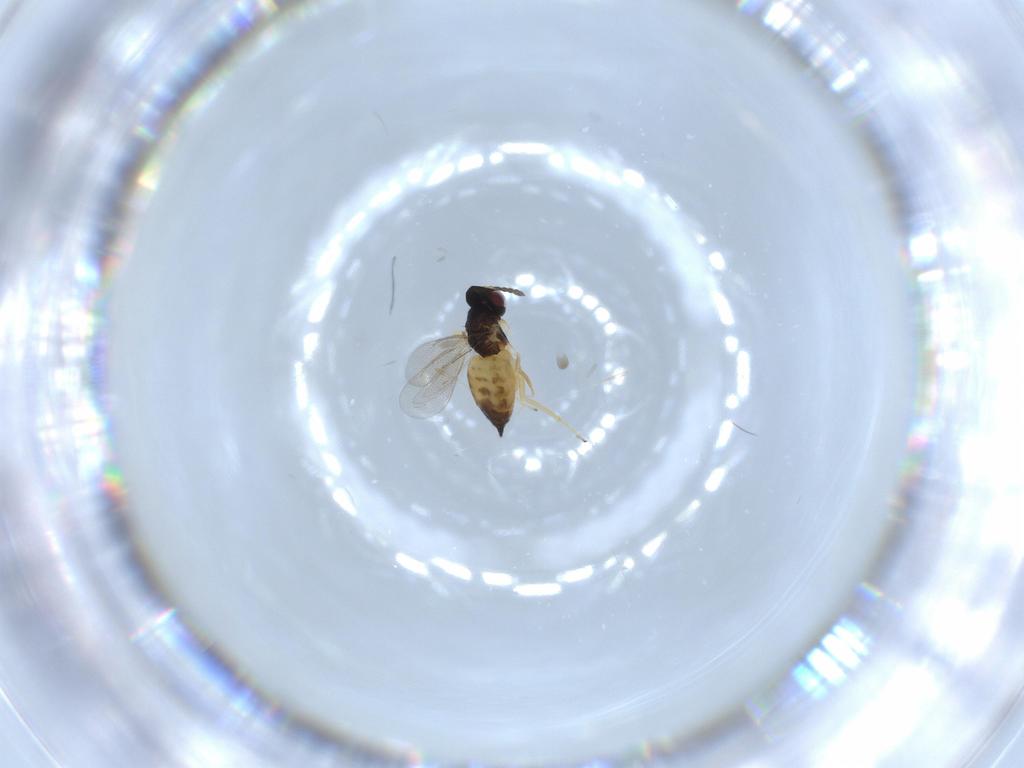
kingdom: Animalia
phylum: Arthropoda
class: Insecta
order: Hymenoptera
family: Eulophidae
